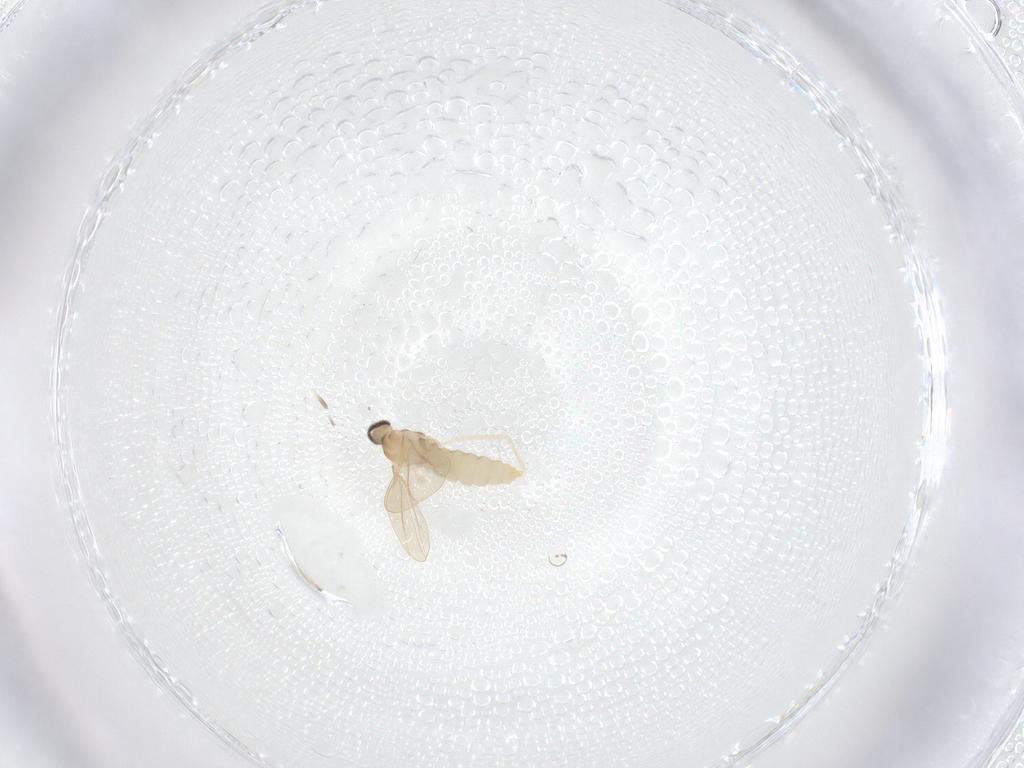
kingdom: Animalia
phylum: Arthropoda
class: Insecta
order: Diptera
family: Cecidomyiidae
